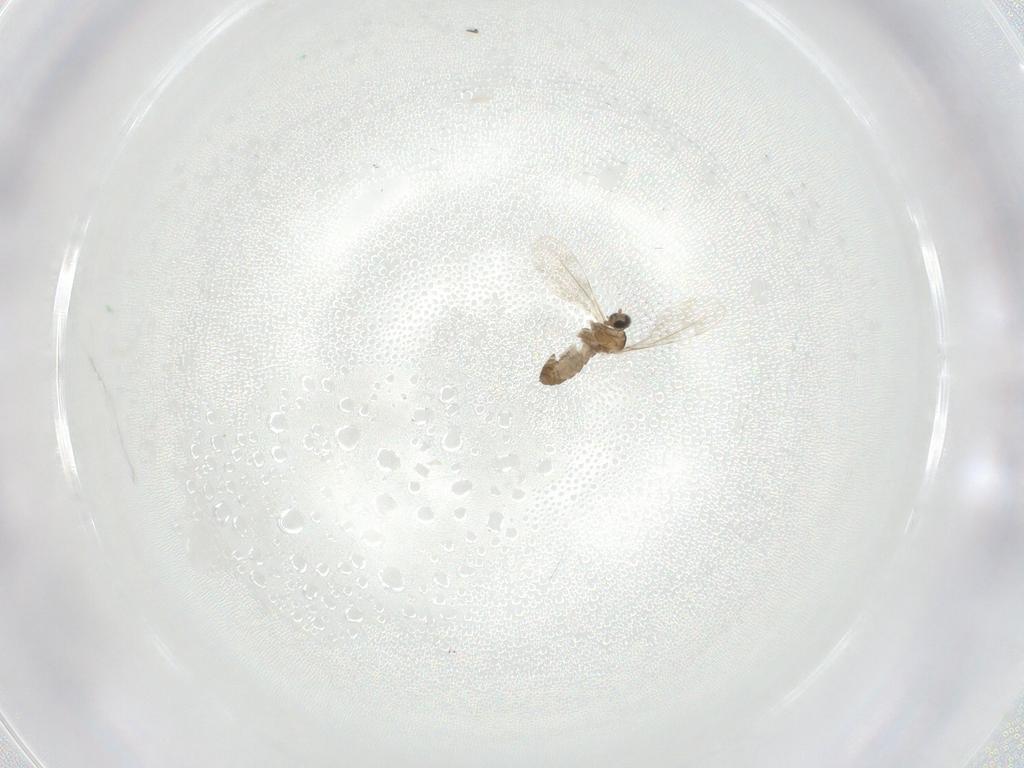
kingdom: Animalia
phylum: Arthropoda
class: Insecta
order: Diptera
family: Cecidomyiidae
